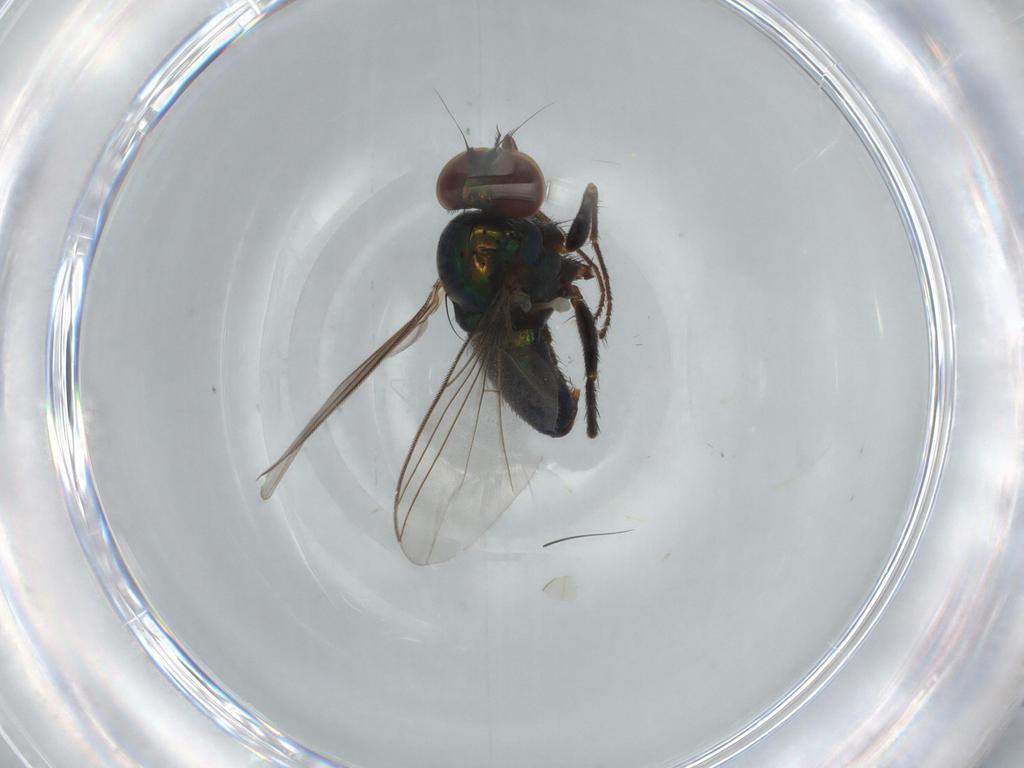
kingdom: Animalia
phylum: Arthropoda
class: Insecta
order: Diptera
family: Dolichopodidae
